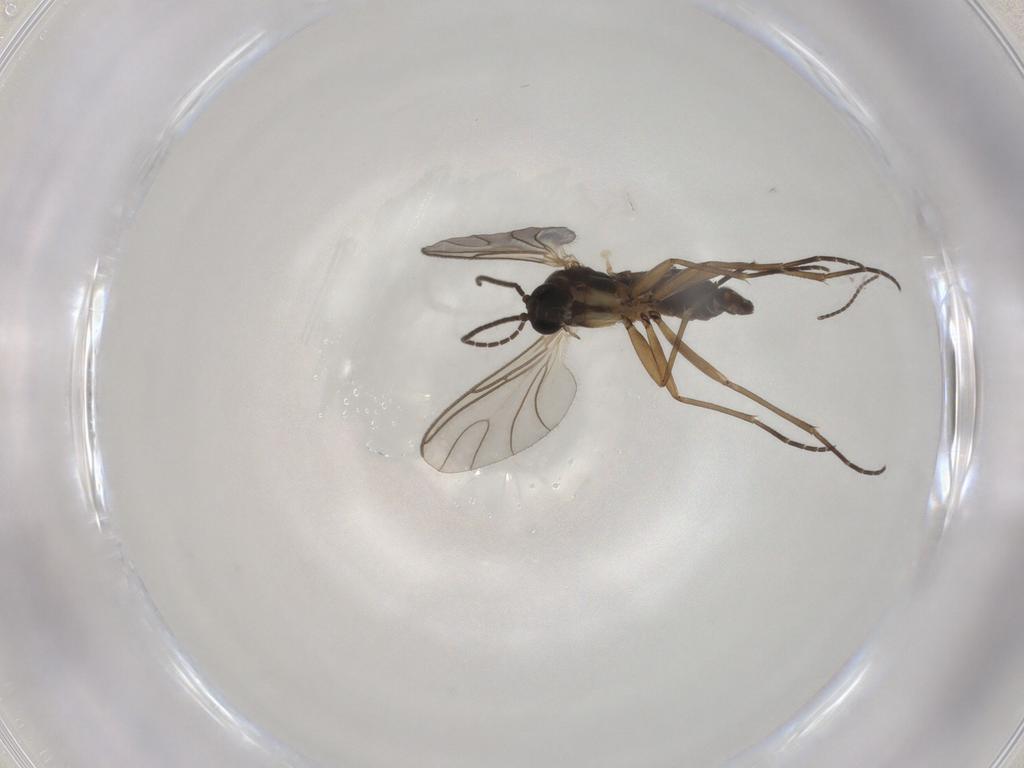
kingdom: Animalia
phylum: Arthropoda
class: Insecta
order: Diptera
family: Sciaridae
